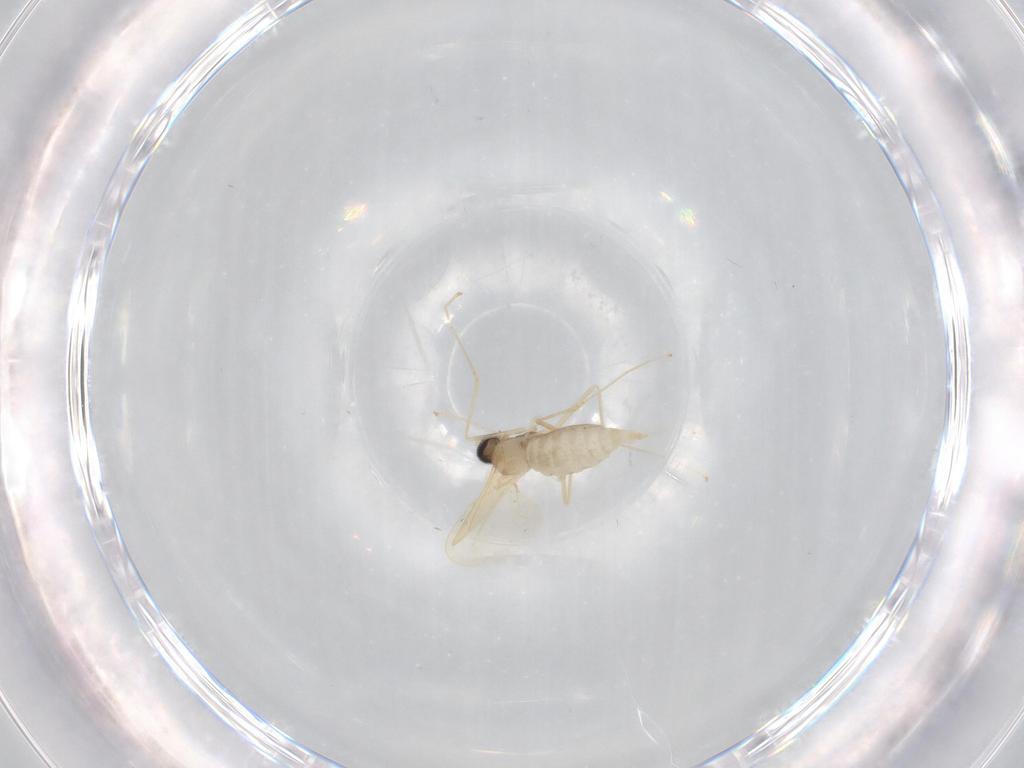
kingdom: Animalia
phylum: Arthropoda
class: Insecta
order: Diptera
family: Cecidomyiidae
